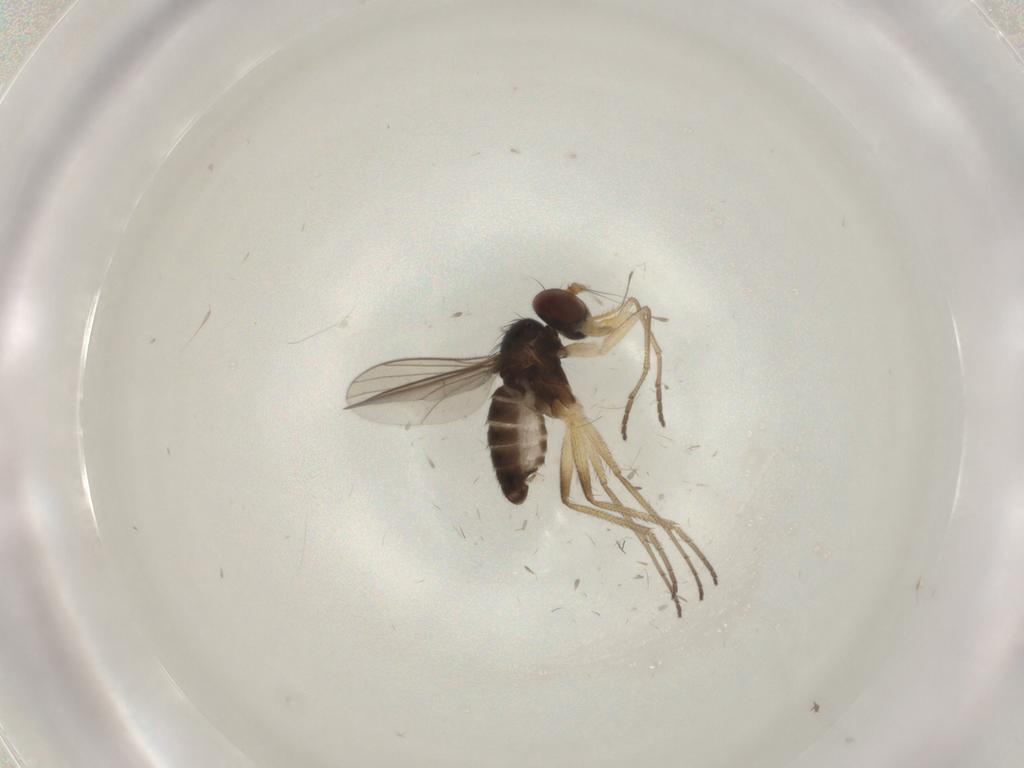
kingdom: Animalia
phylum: Arthropoda
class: Insecta
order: Diptera
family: Dolichopodidae
